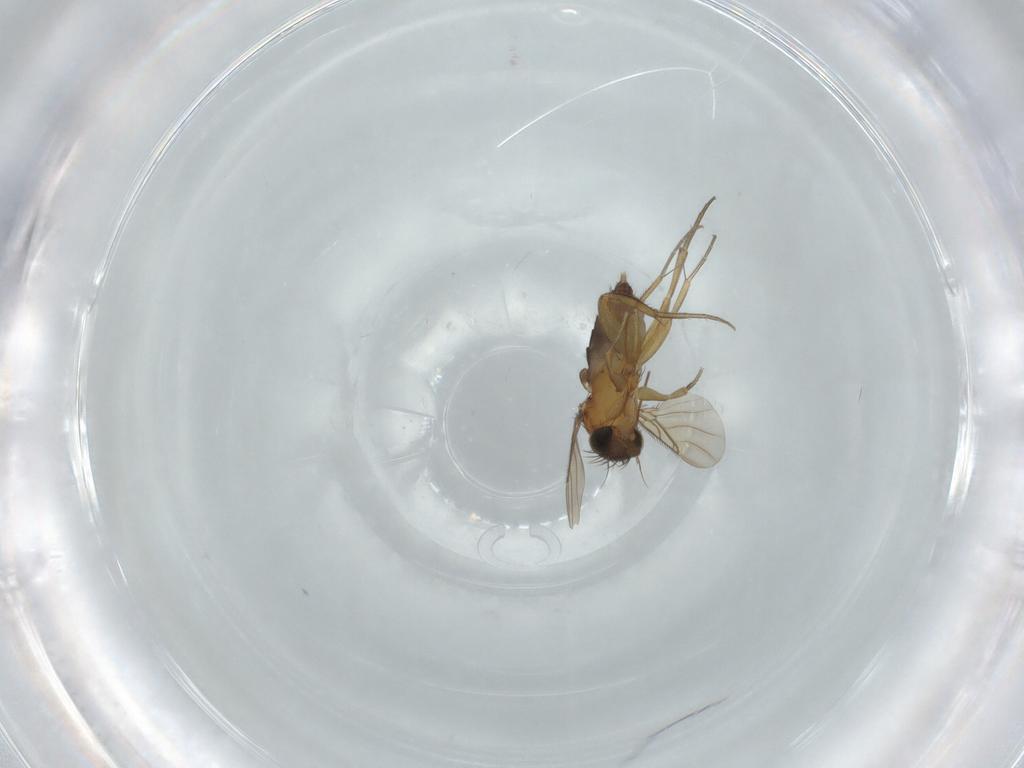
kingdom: Animalia
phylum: Arthropoda
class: Insecta
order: Diptera
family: Phoridae
